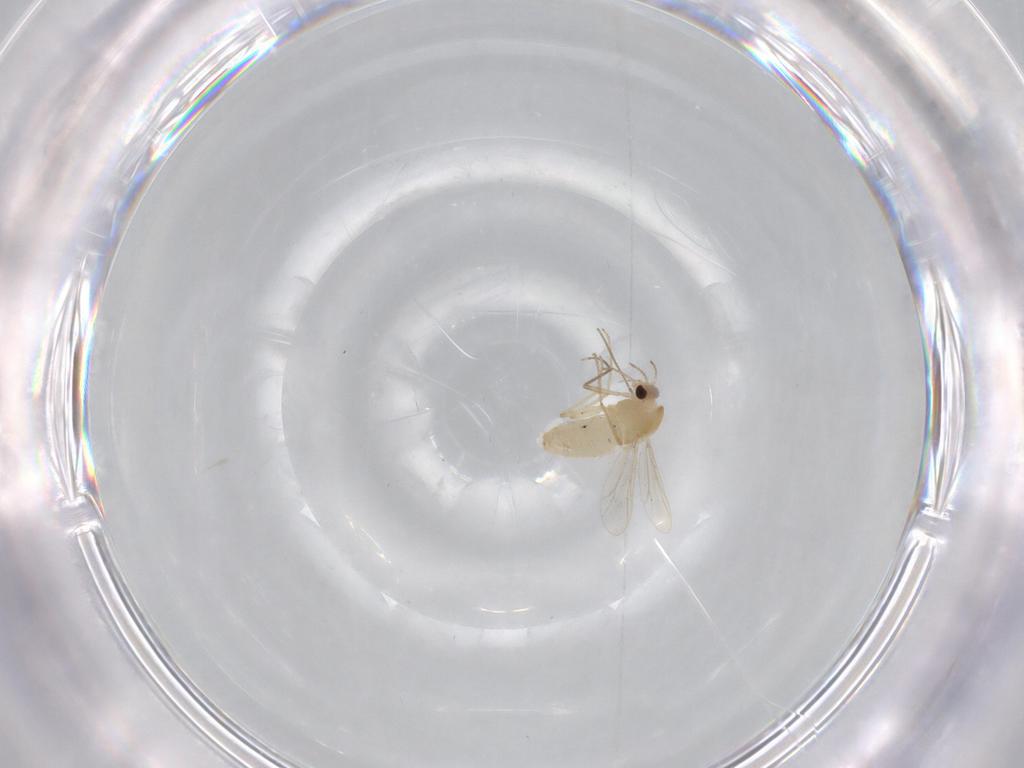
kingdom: Animalia
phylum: Arthropoda
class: Insecta
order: Diptera
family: Chironomidae
